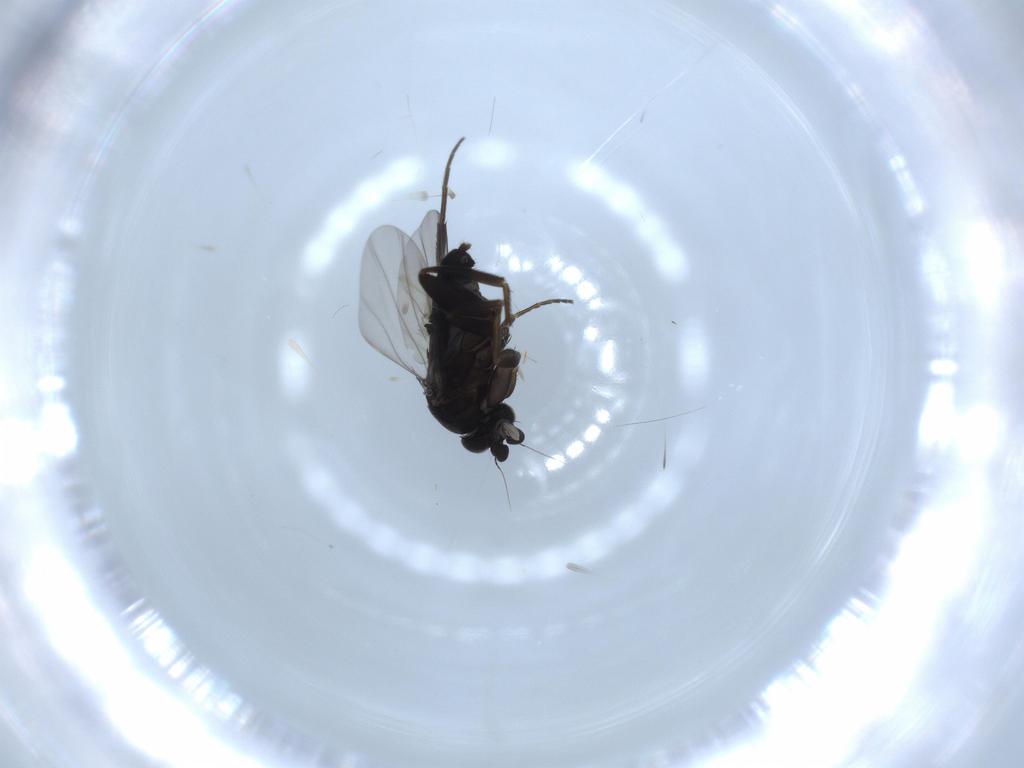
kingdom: Animalia
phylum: Arthropoda
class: Insecta
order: Diptera
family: Phoridae
